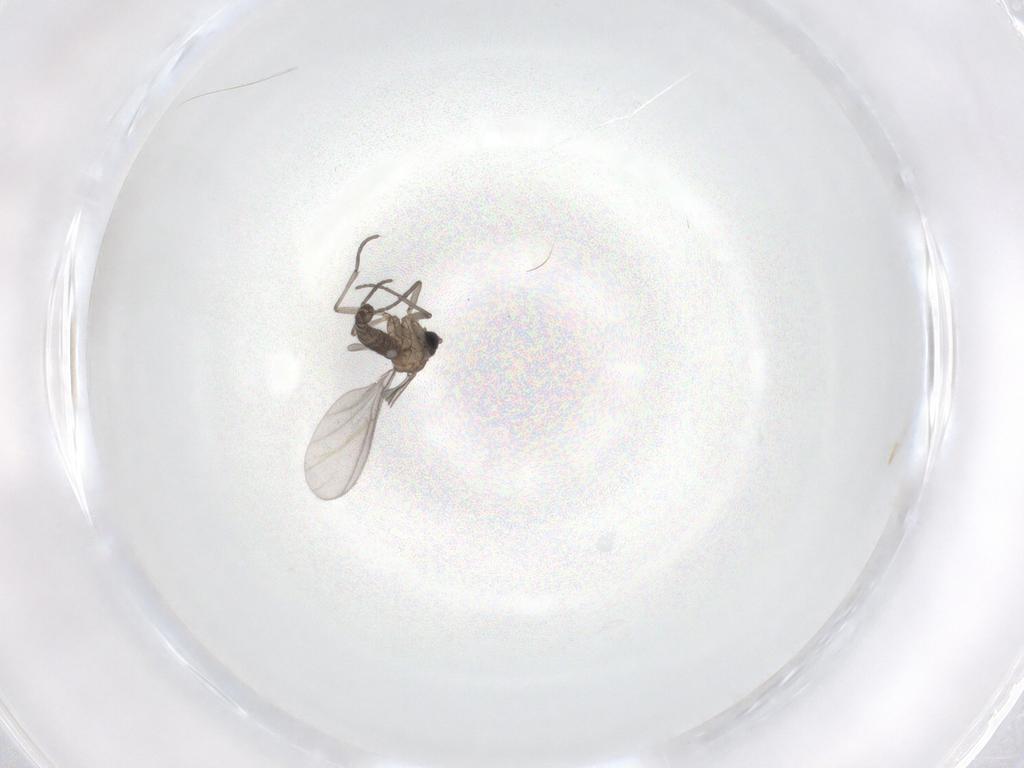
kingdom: Animalia
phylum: Arthropoda
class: Insecta
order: Diptera
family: Sciaridae
